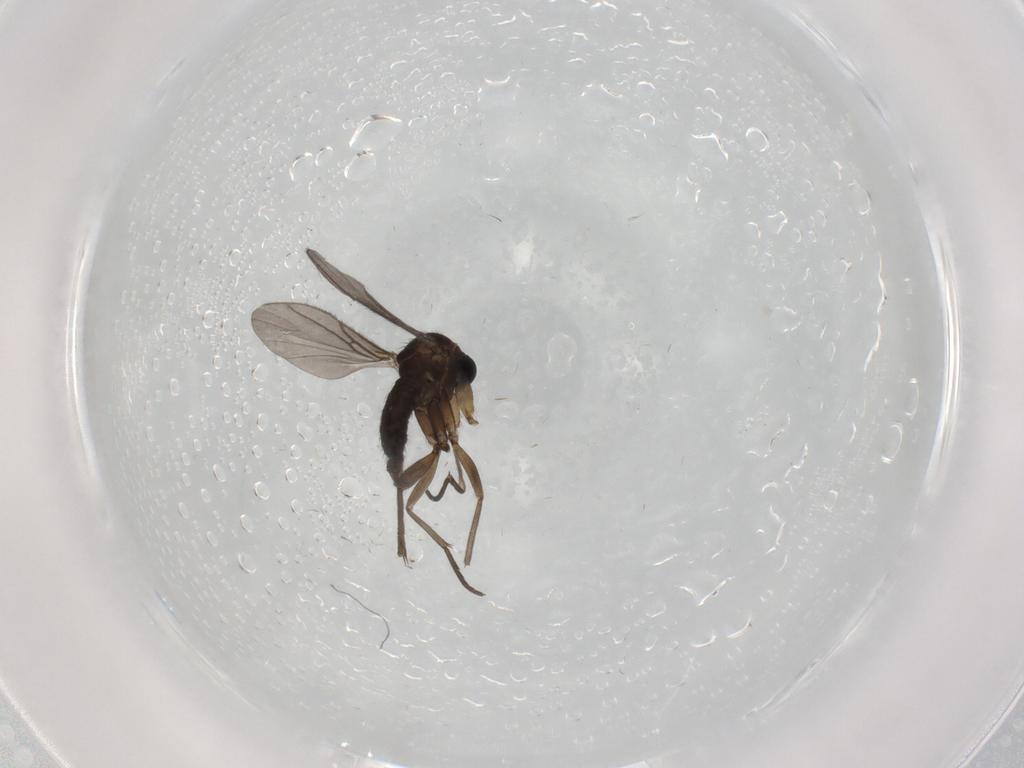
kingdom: Animalia
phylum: Arthropoda
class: Insecta
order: Diptera
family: Sciaridae
